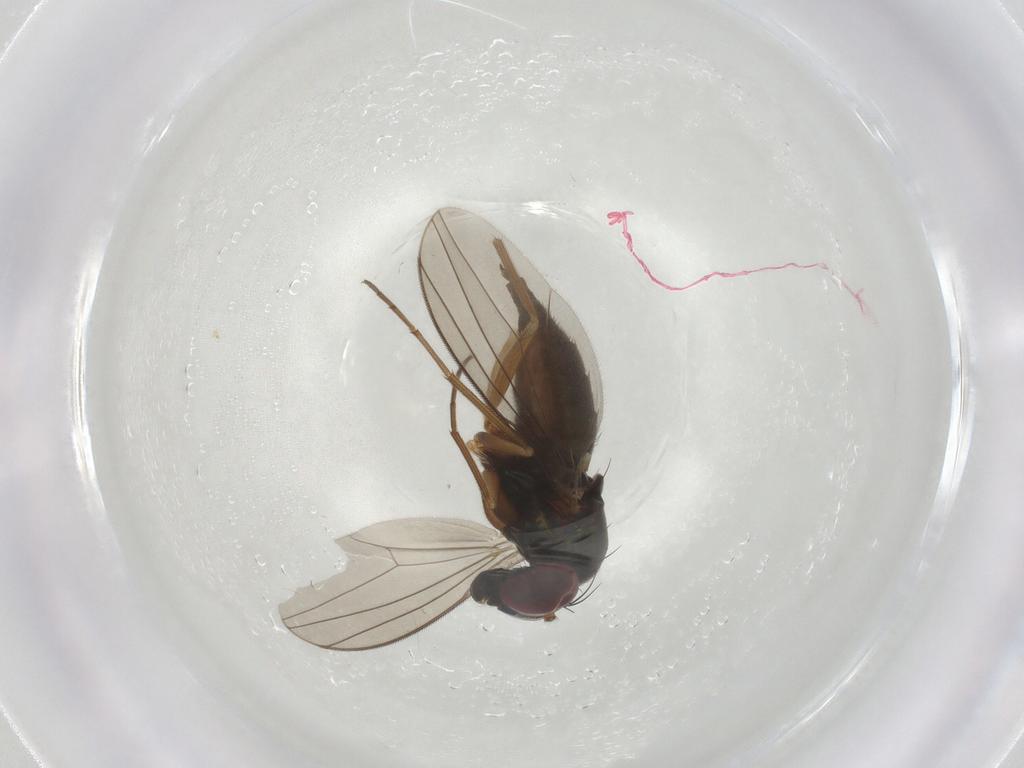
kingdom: Animalia
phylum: Arthropoda
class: Insecta
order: Diptera
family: Dolichopodidae
